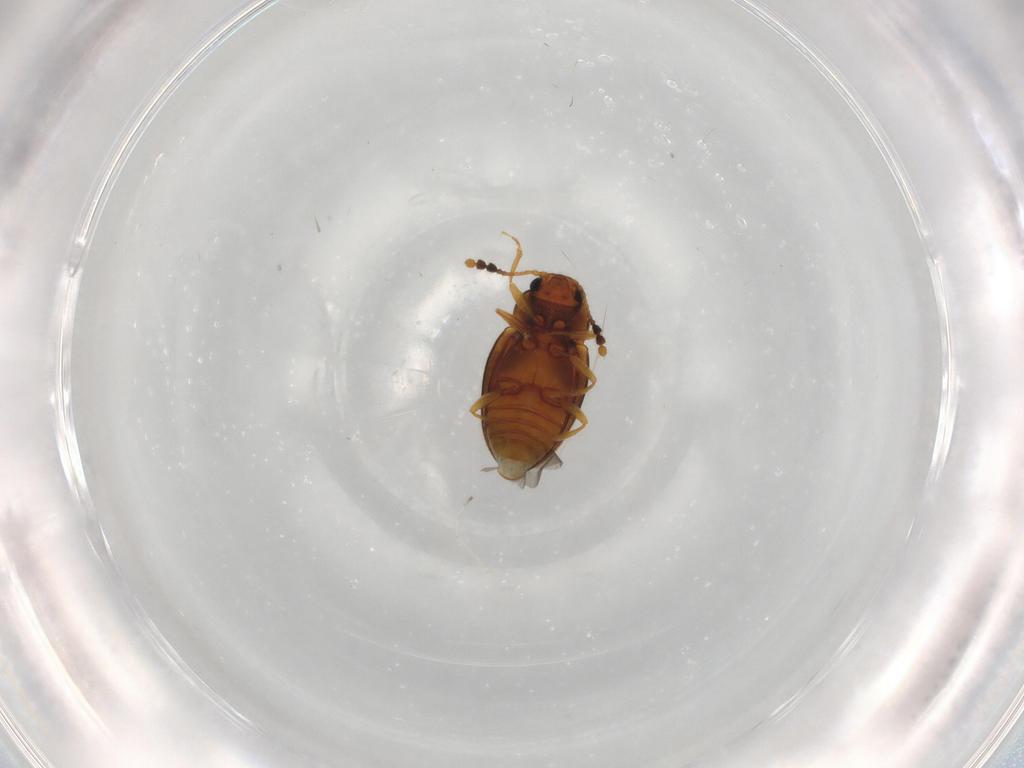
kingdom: Animalia
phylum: Arthropoda
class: Insecta
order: Coleoptera
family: Erotylidae
